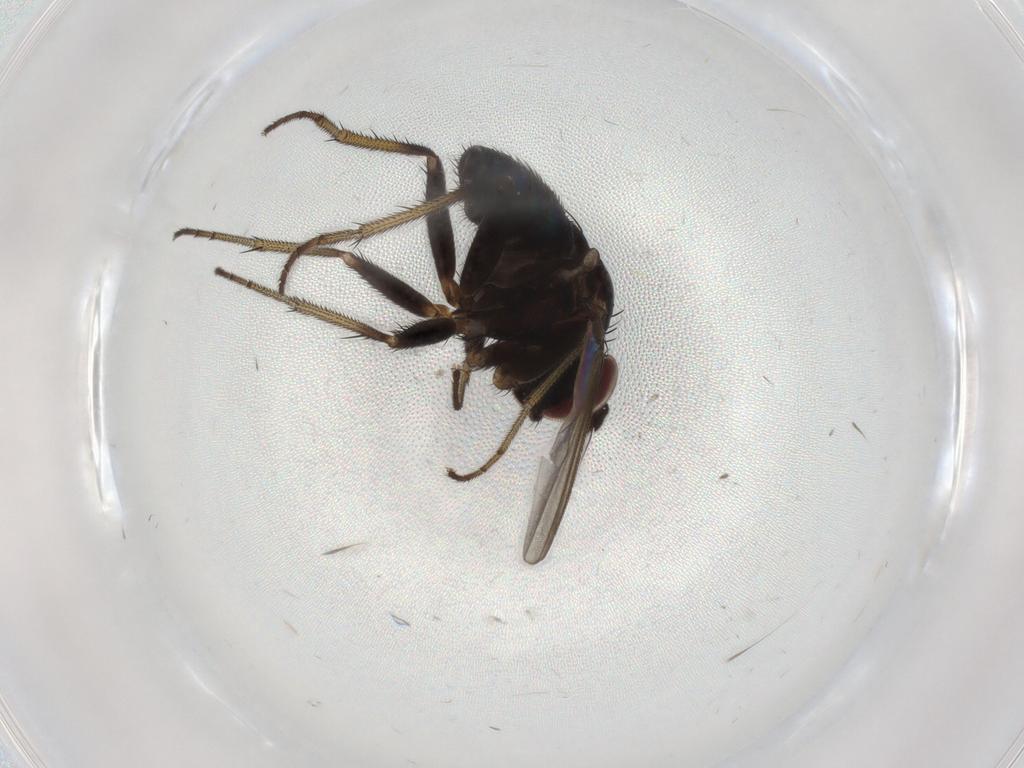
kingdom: Animalia
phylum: Arthropoda
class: Insecta
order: Diptera
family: Dolichopodidae
